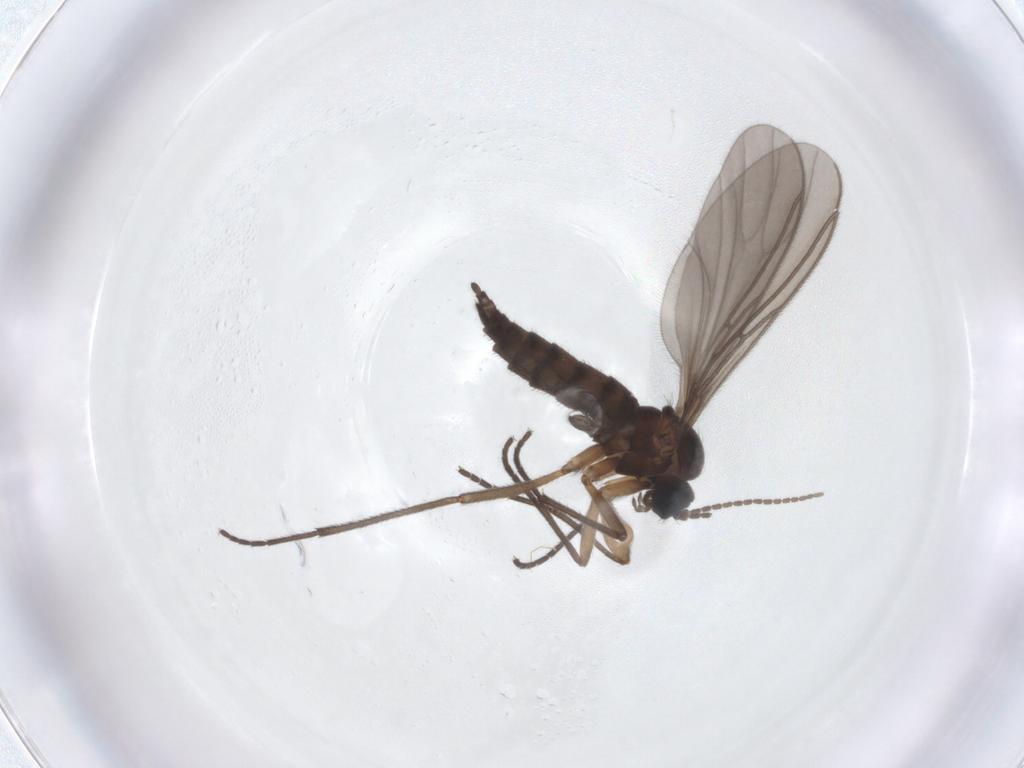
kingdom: Animalia
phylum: Arthropoda
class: Insecta
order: Diptera
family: Sciaridae
